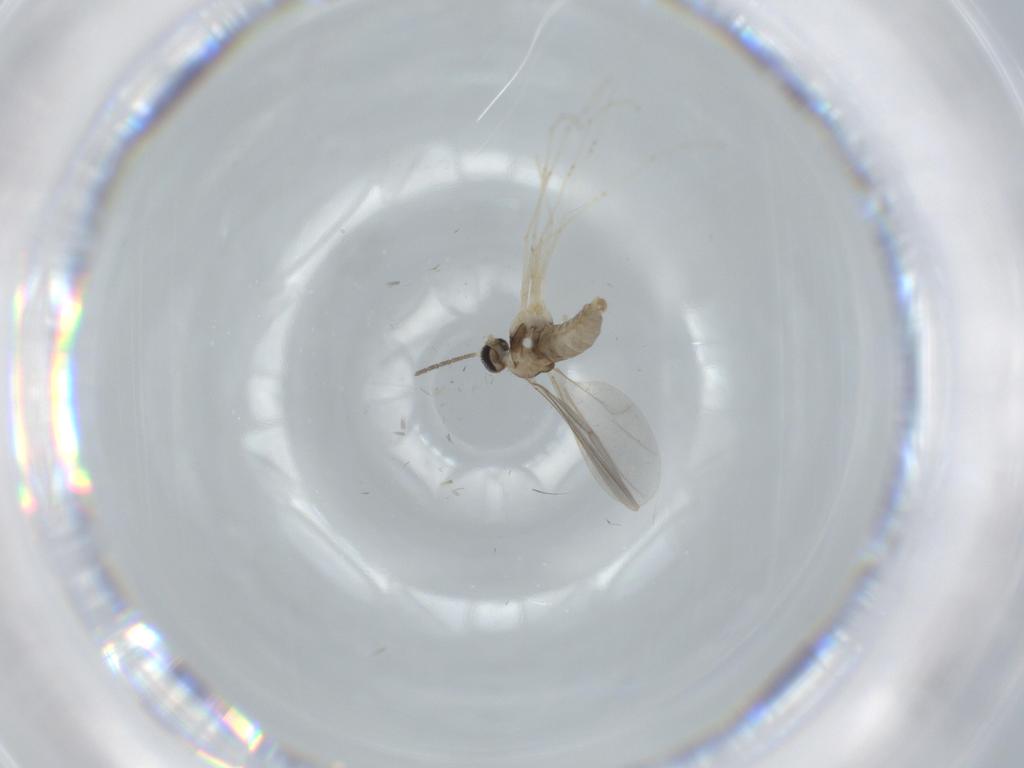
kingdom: Animalia
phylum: Arthropoda
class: Insecta
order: Diptera
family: Cecidomyiidae
